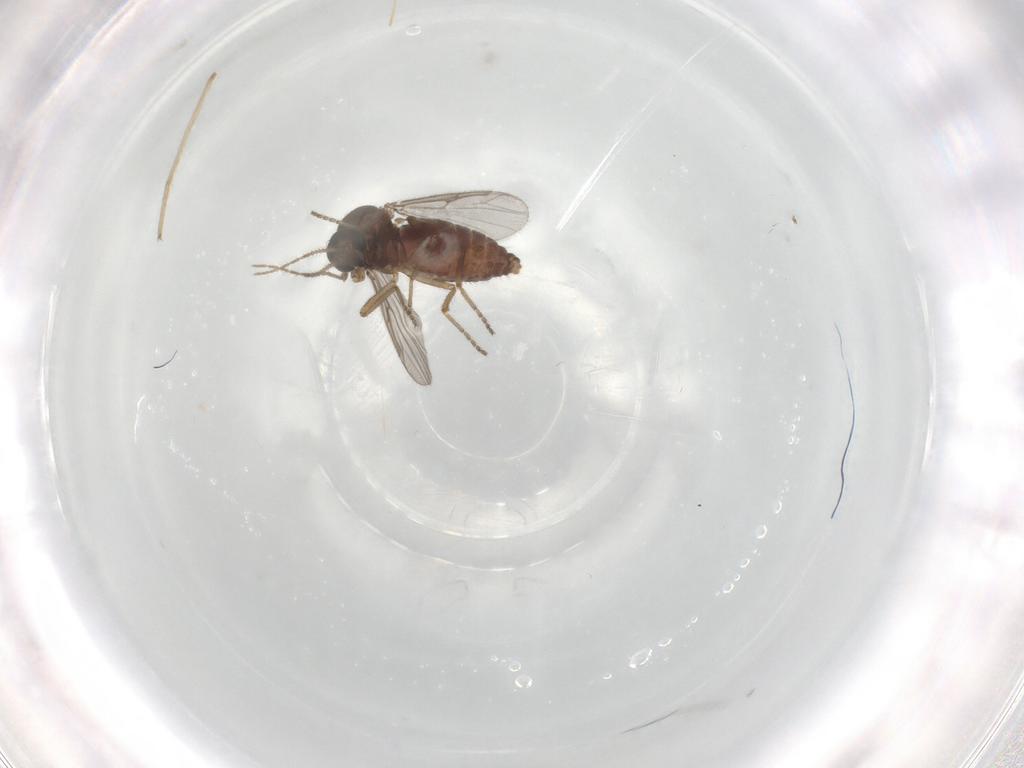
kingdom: Animalia
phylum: Arthropoda
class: Insecta
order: Diptera
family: Ceratopogonidae
